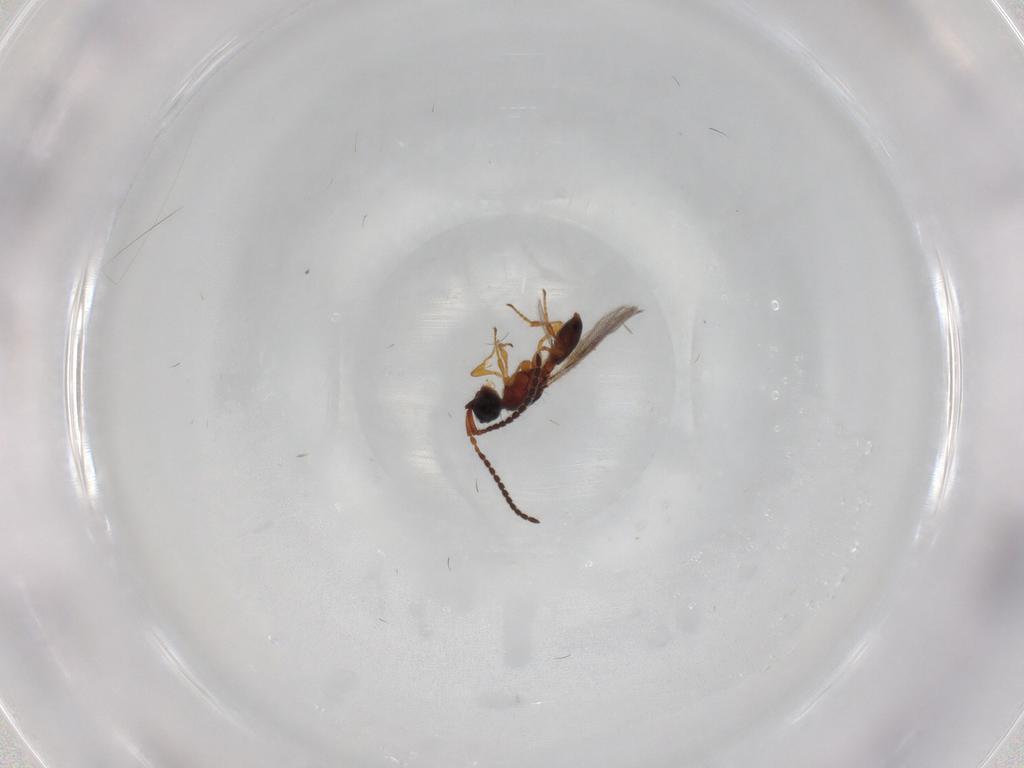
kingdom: Animalia
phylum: Arthropoda
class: Insecta
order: Hymenoptera
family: Diapriidae
